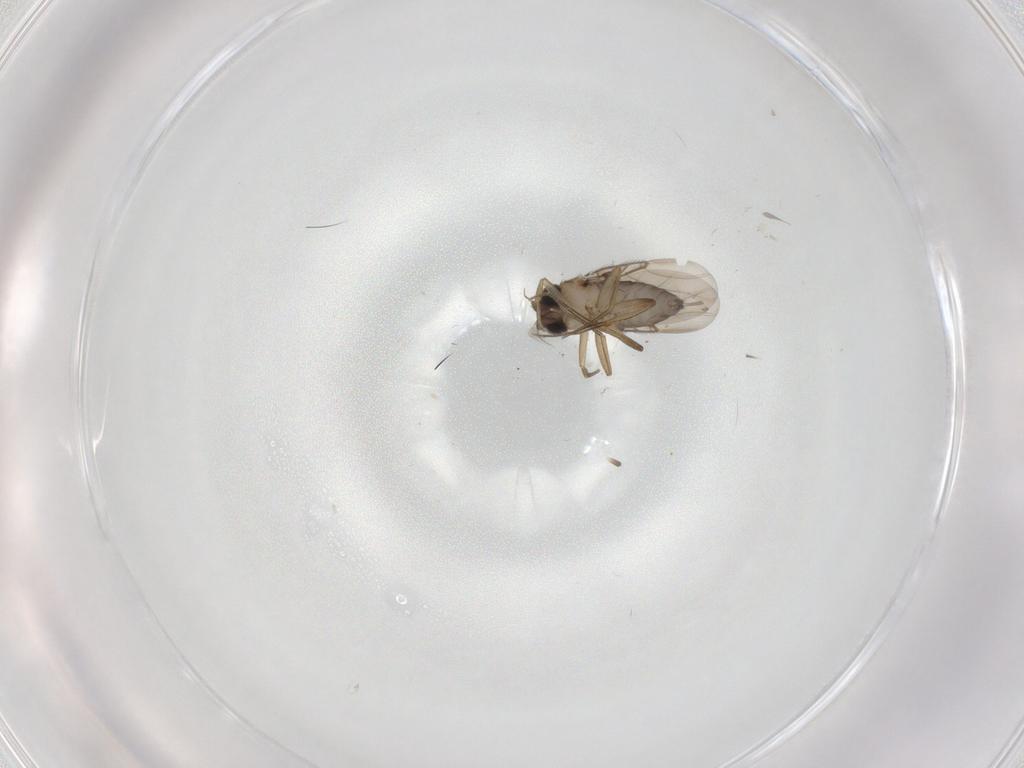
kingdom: Animalia
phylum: Arthropoda
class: Insecta
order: Diptera
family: Phoridae
